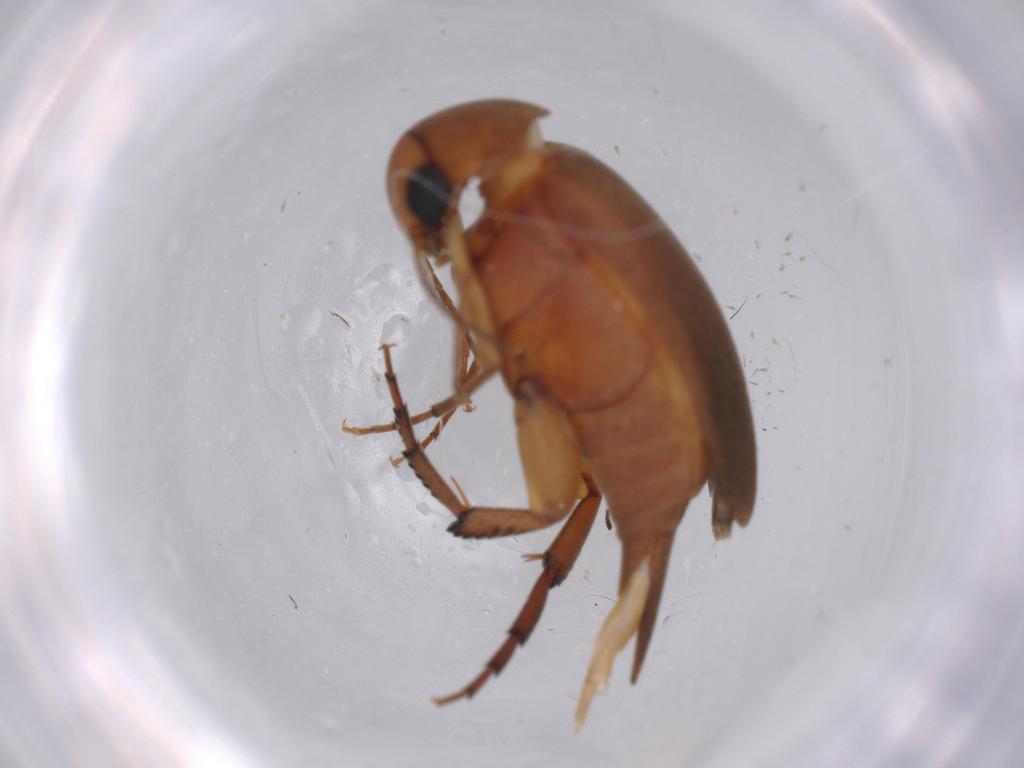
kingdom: Animalia
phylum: Arthropoda
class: Insecta
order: Coleoptera
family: Mordellidae
